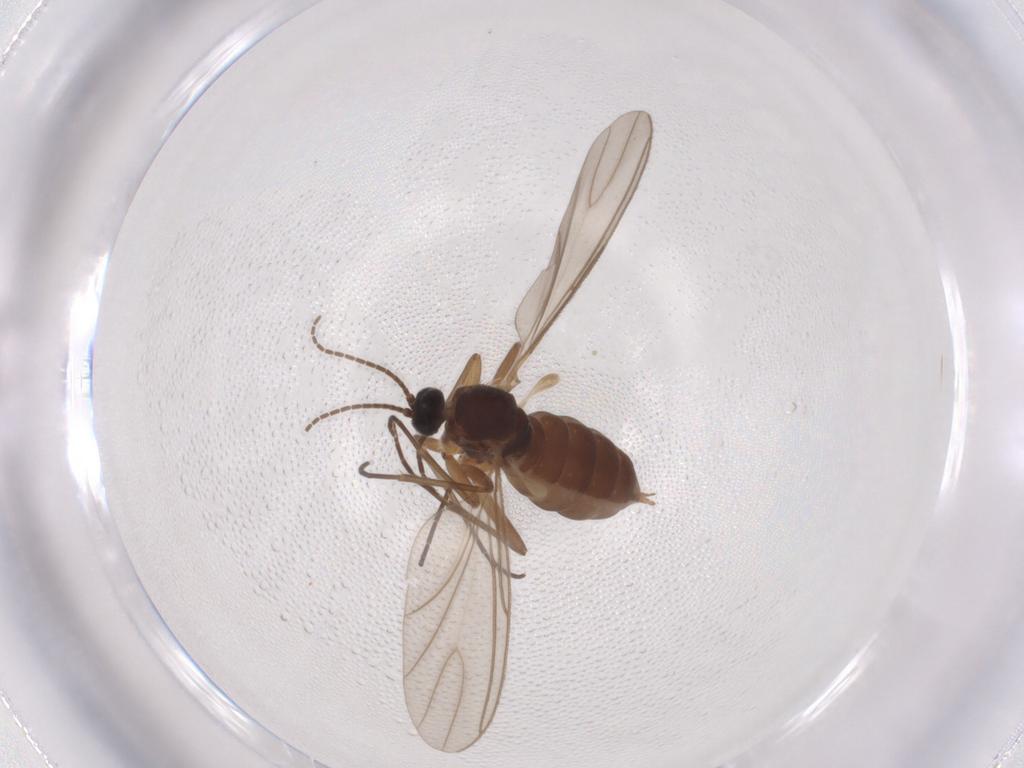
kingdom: Animalia
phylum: Arthropoda
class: Insecta
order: Diptera
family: Sciaridae
